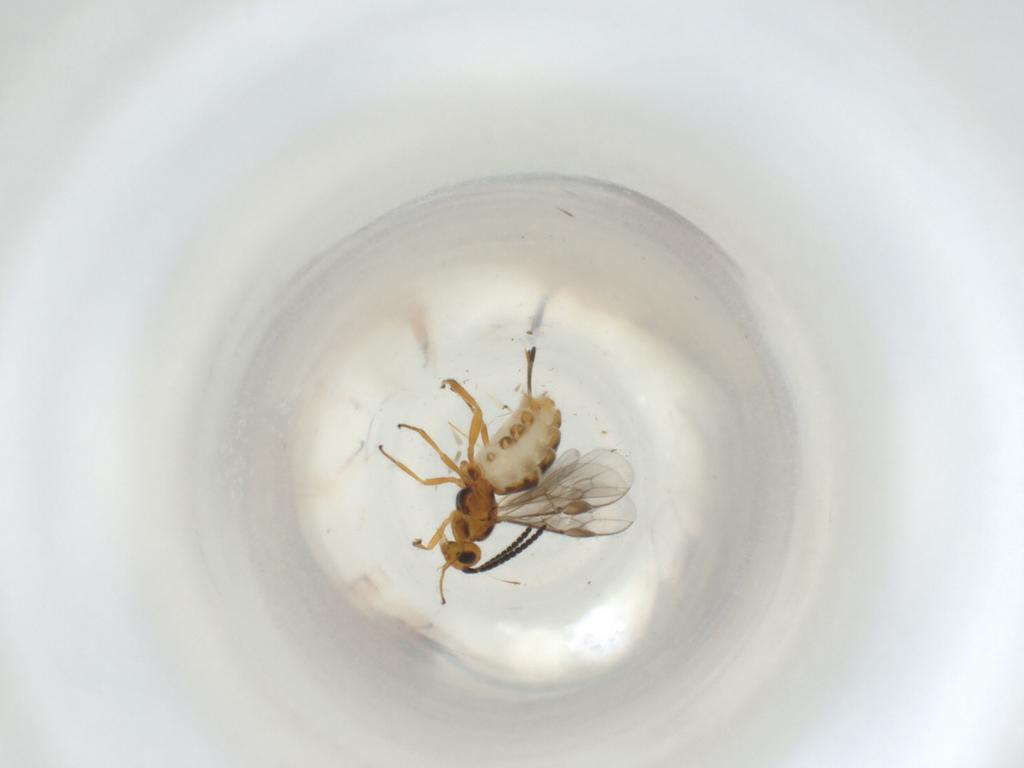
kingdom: Animalia
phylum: Arthropoda
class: Insecta
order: Hymenoptera
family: Braconidae
